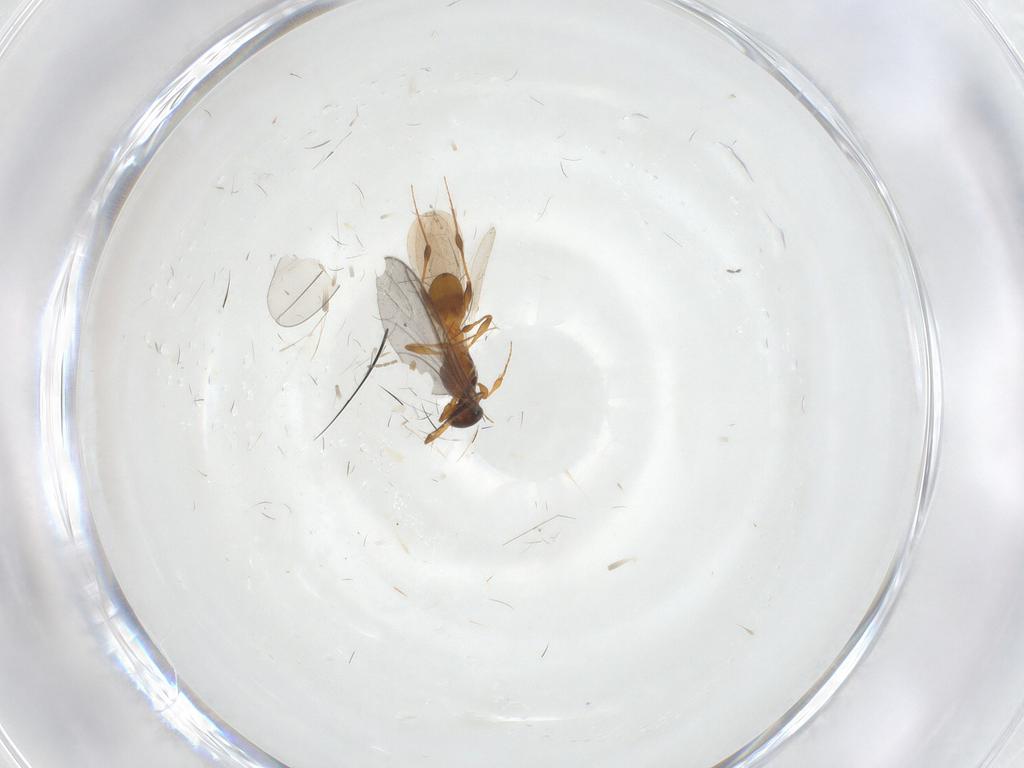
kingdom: Animalia
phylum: Arthropoda
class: Insecta
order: Hymenoptera
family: Platygastridae
